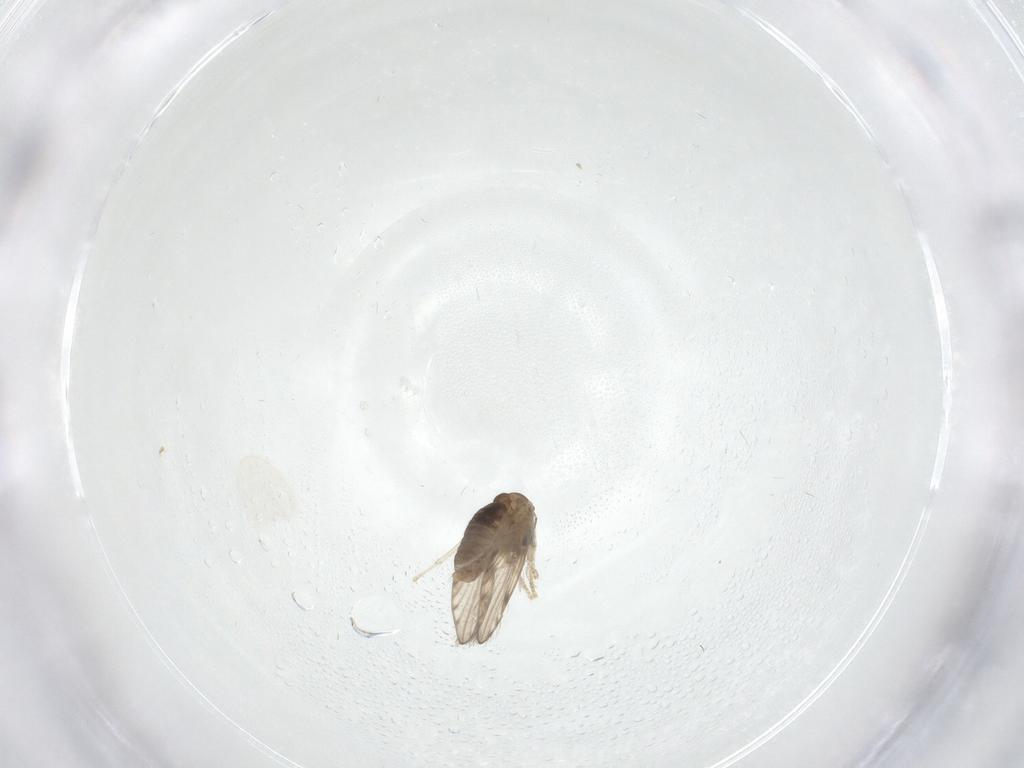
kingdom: Animalia
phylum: Arthropoda
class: Insecta
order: Diptera
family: Psychodidae
